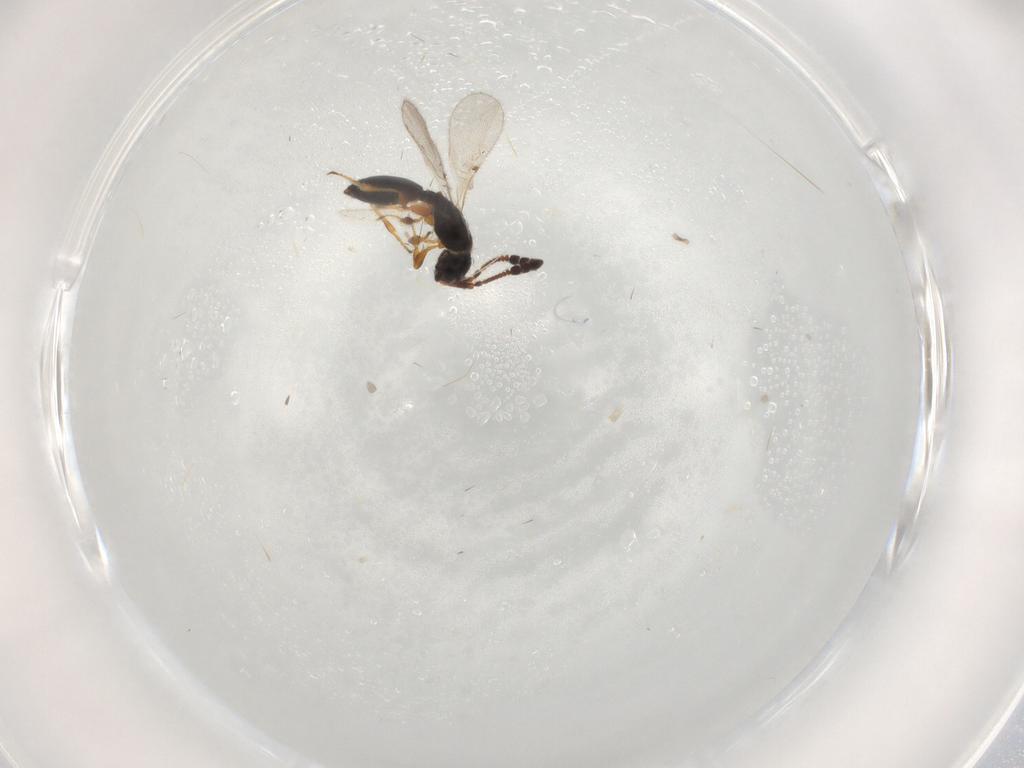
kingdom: Animalia
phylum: Arthropoda
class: Insecta
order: Hymenoptera
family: Diapriidae
